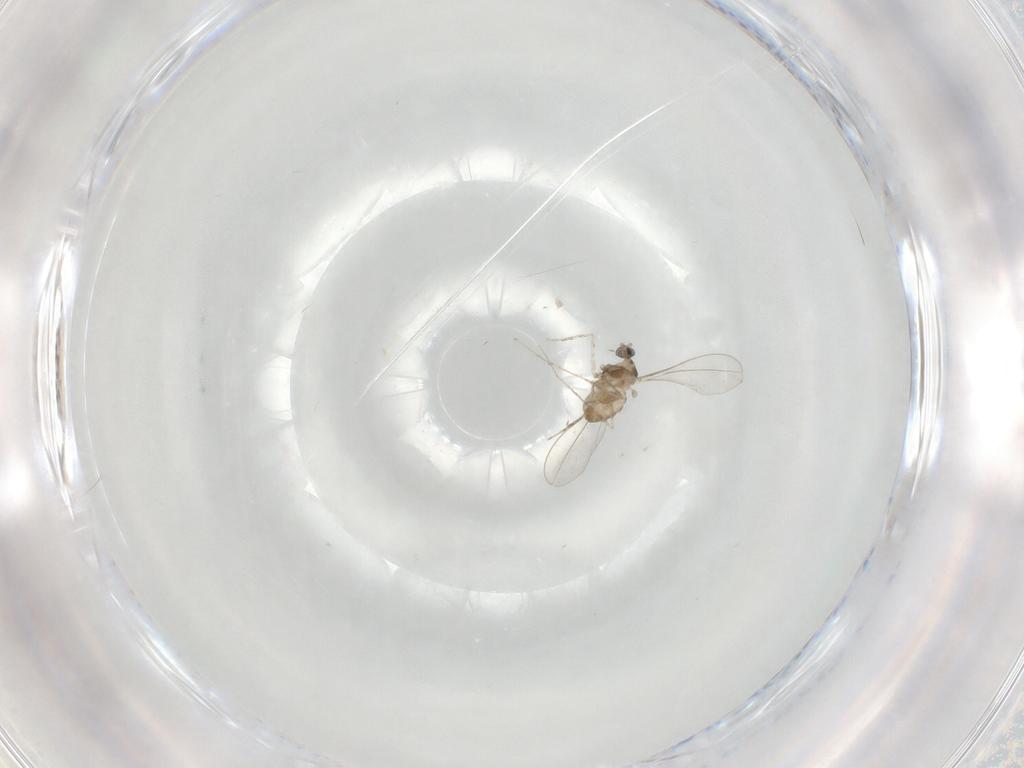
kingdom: Animalia
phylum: Arthropoda
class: Insecta
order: Diptera
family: Cecidomyiidae
